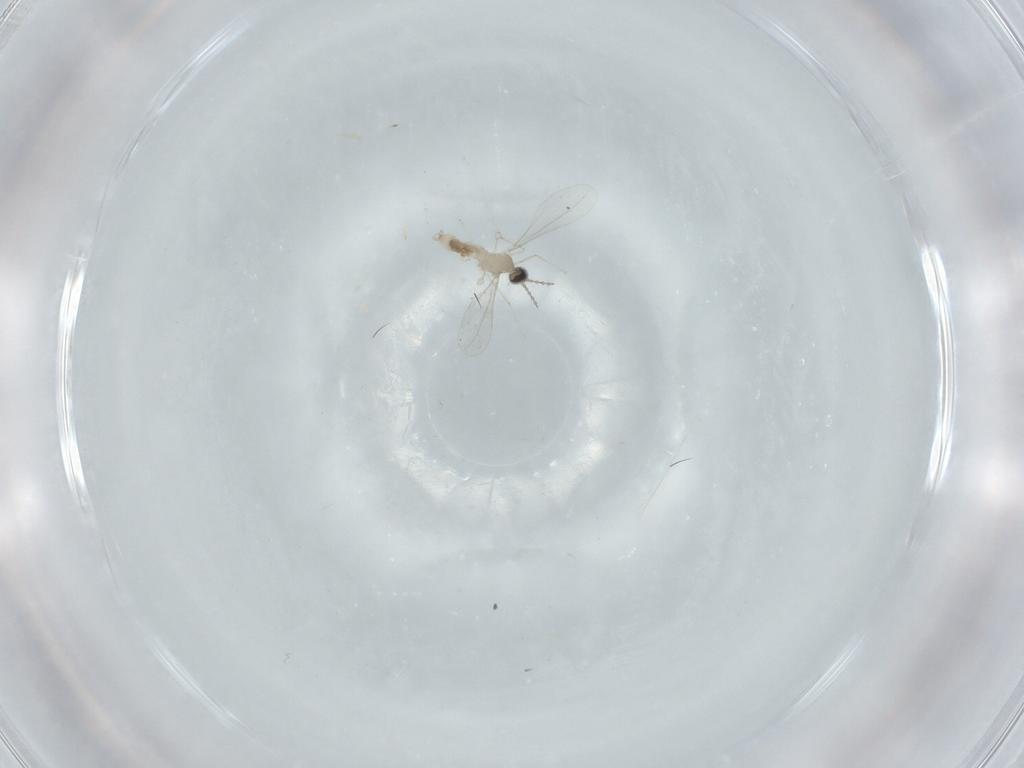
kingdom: Animalia
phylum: Arthropoda
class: Insecta
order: Diptera
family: Cecidomyiidae
